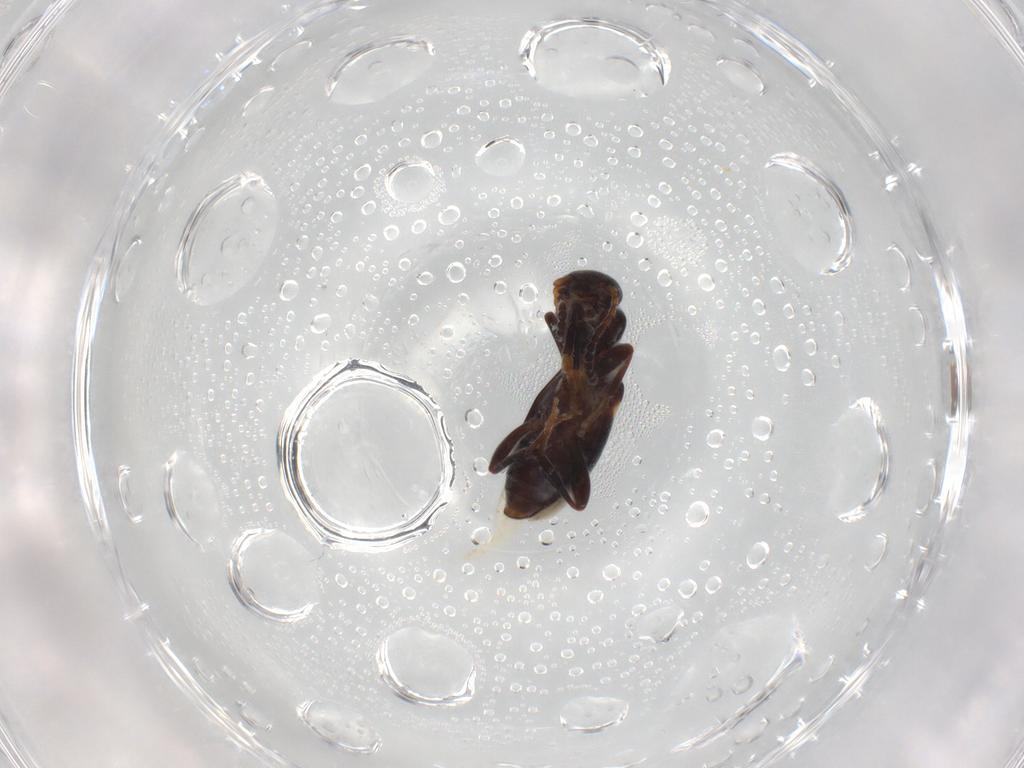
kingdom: Animalia
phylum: Arthropoda
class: Insecta
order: Coleoptera
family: Anthicidae
